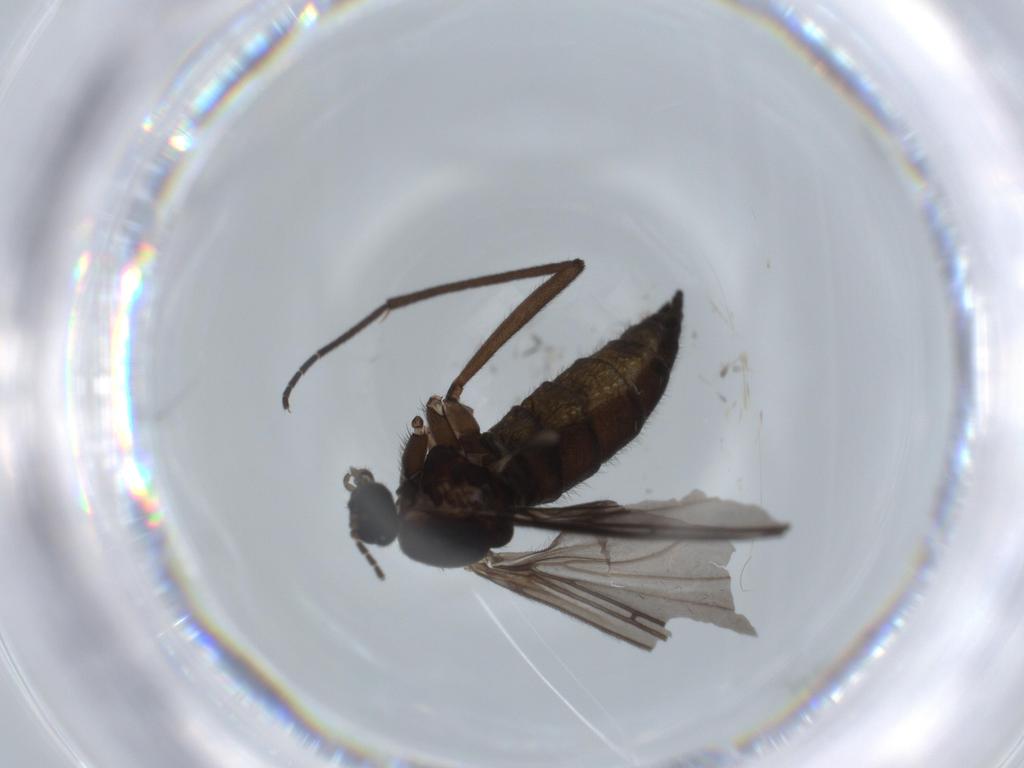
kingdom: Animalia
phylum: Arthropoda
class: Insecta
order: Diptera
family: Sciaridae
